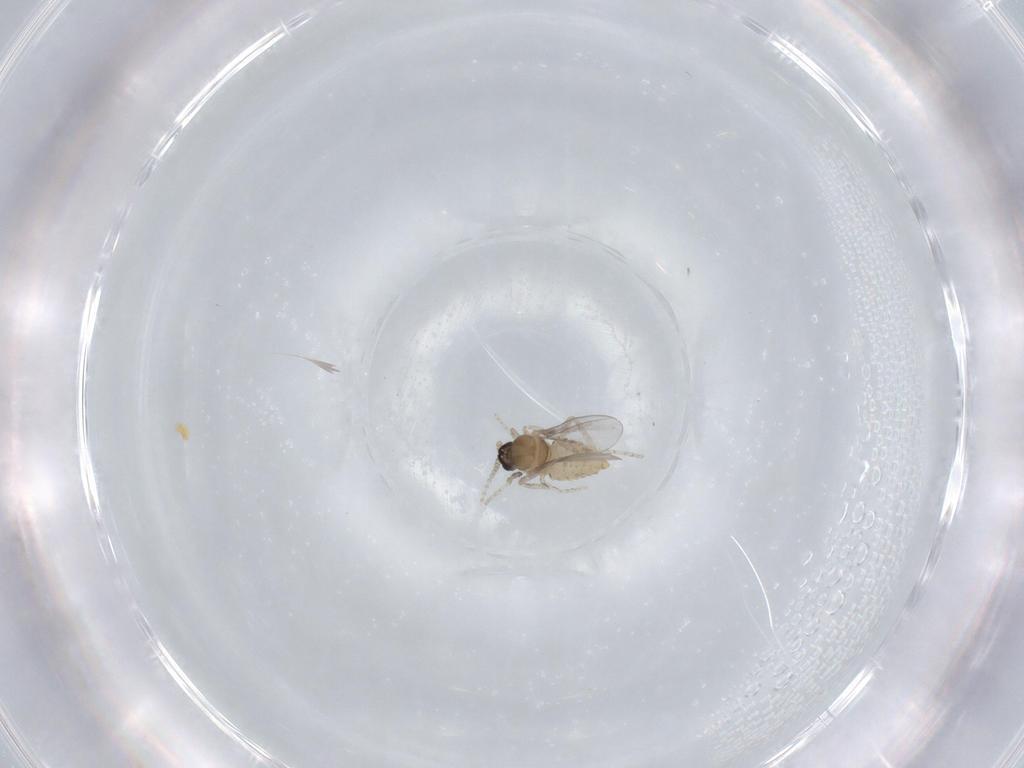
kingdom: Animalia
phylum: Arthropoda
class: Insecta
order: Diptera
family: Cecidomyiidae
